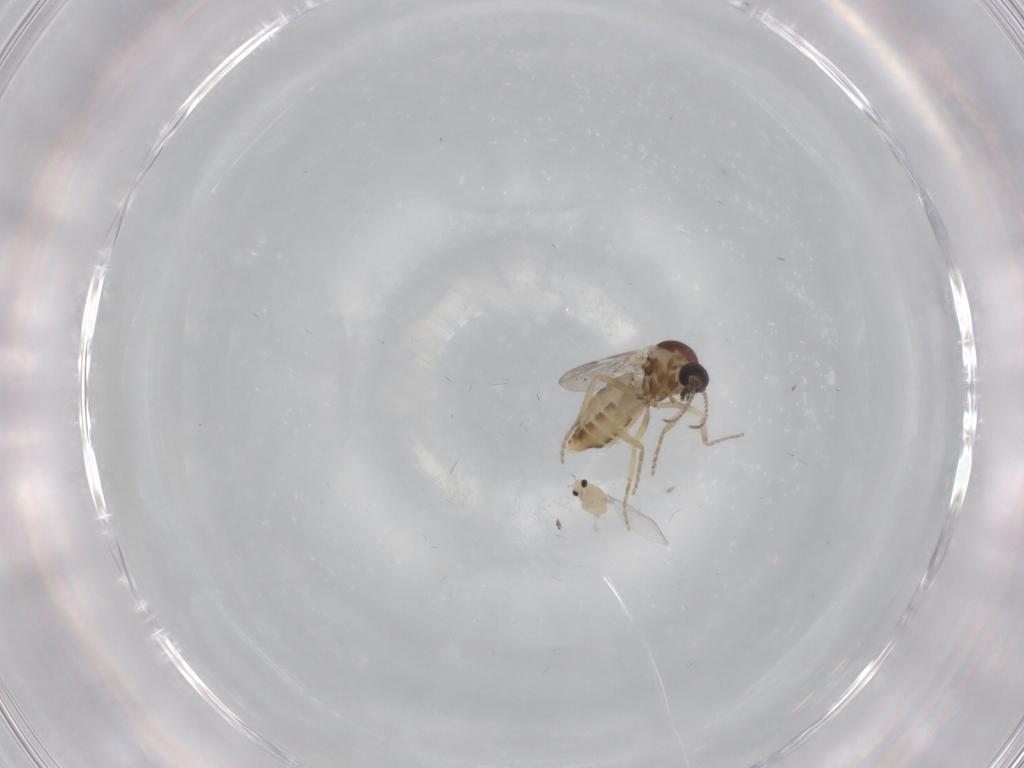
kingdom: Animalia
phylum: Arthropoda
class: Insecta
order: Diptera
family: Chironomidae
